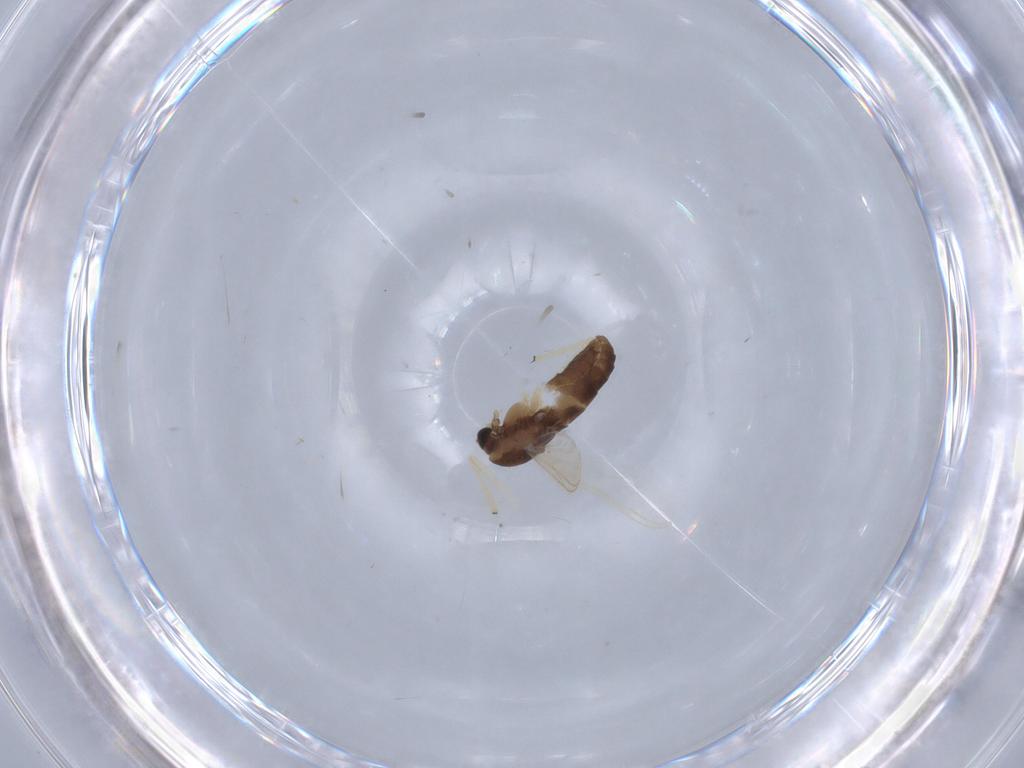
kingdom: Animalia
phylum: Arthropoda
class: Insecta
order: Diptera
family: Chironomidae
